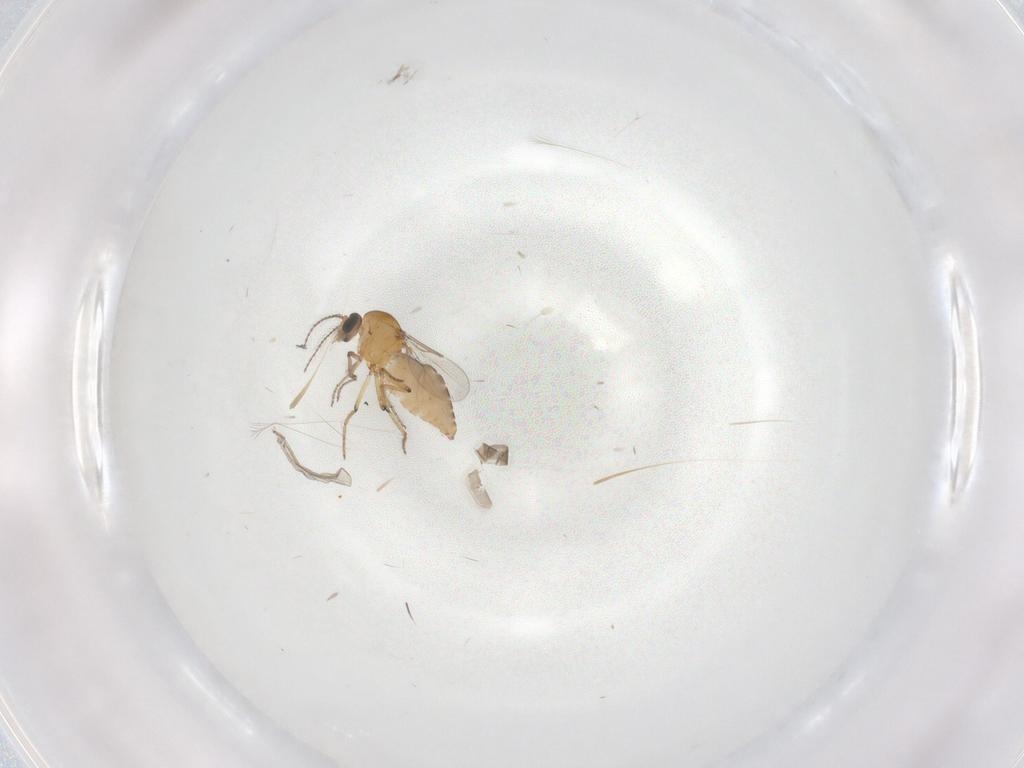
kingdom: Animalia
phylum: Arthropoda
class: Insecta
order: Diptera
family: Ceratopogonidae
